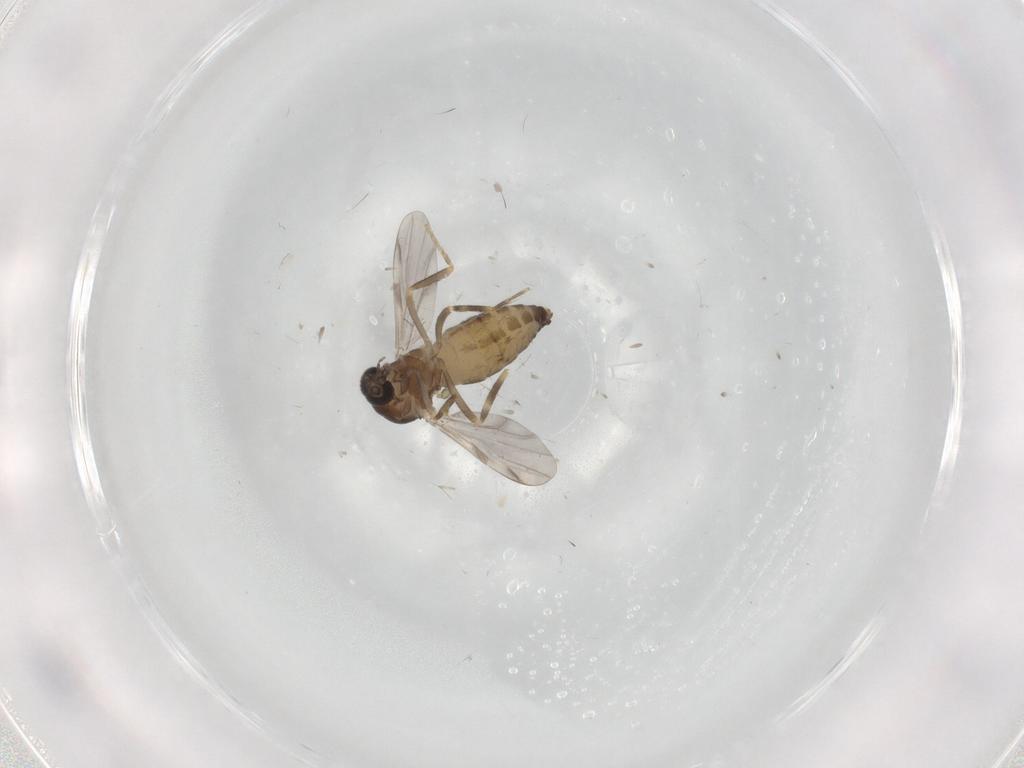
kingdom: Animalia
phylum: Arthropoda
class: Insecta
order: Diptera
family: Ceratopogonidae
